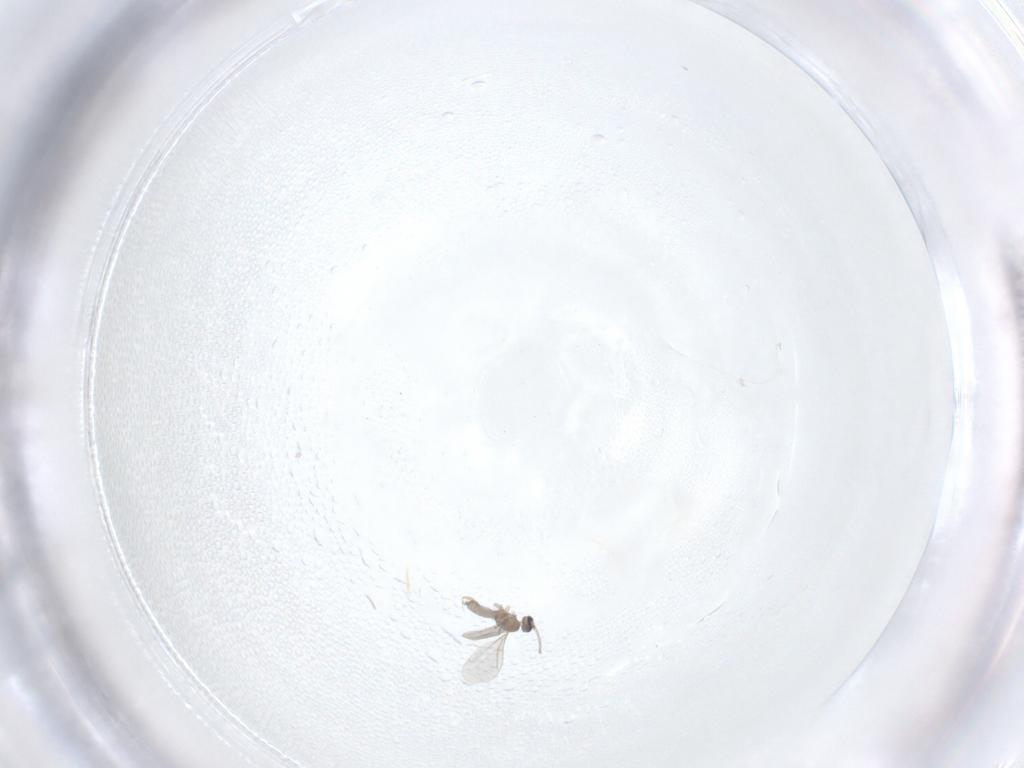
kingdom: Animalia
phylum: Arthropoda
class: Insecta
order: Diptera
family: Cecidomyiidae
